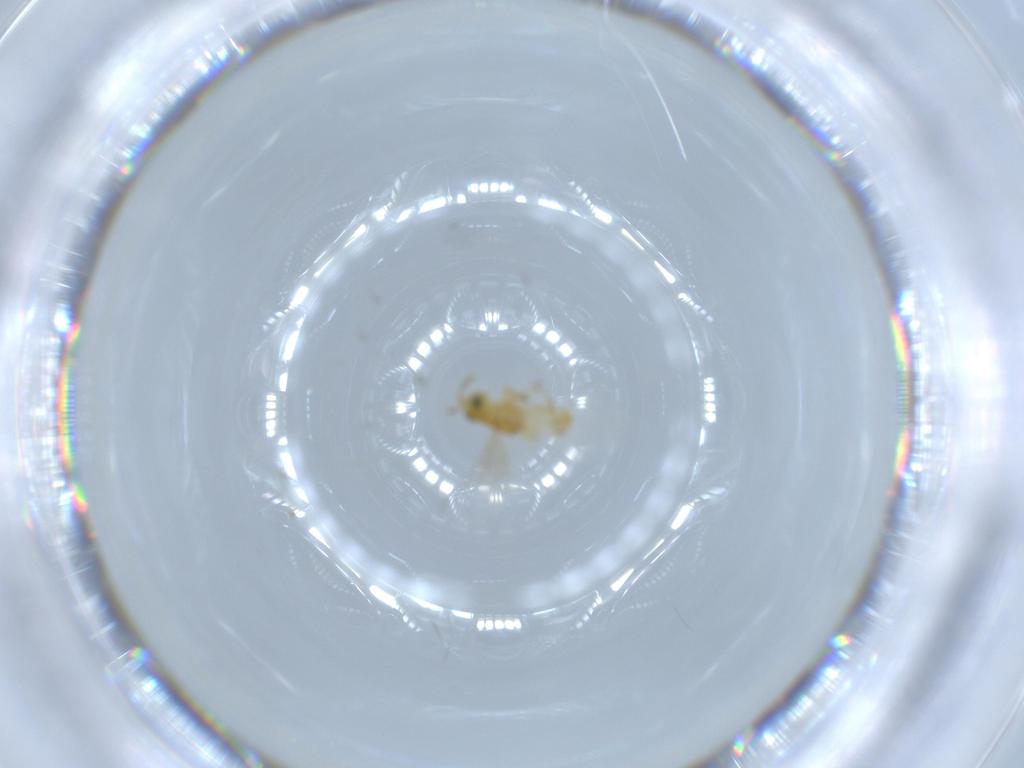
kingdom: Animalia
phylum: Arthropoda
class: Insecta
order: Hymenoptera
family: Encyrtidae
